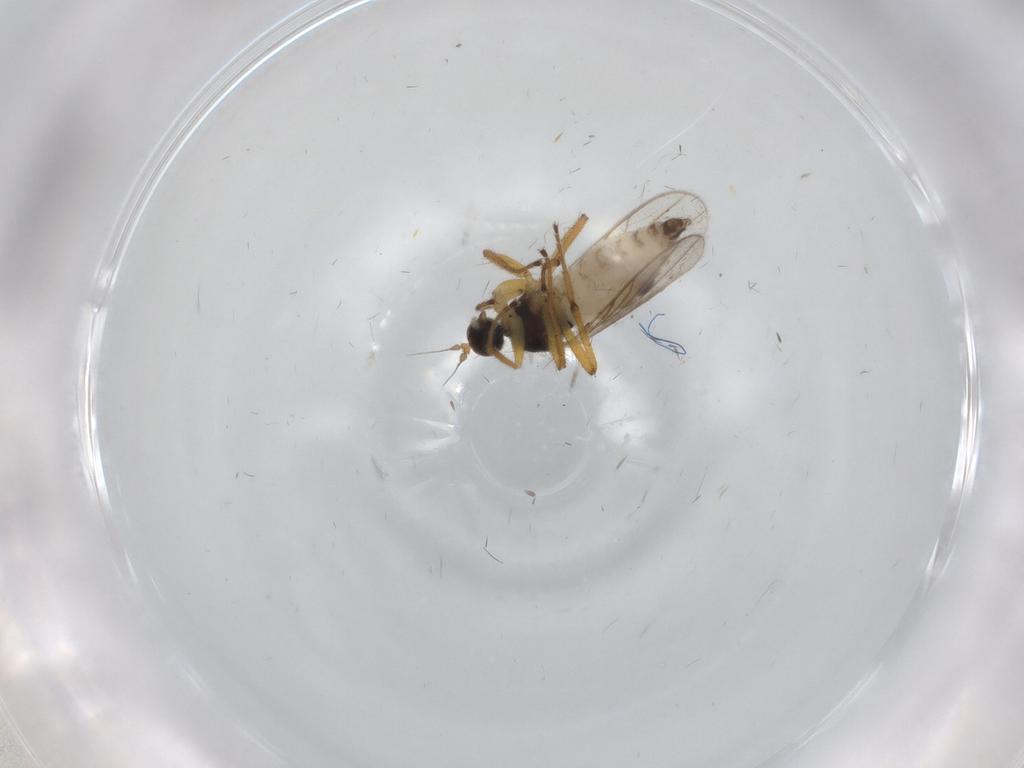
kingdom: Animalia
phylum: Arthropoda
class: Insecta
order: Diptera
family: Hybotidae
